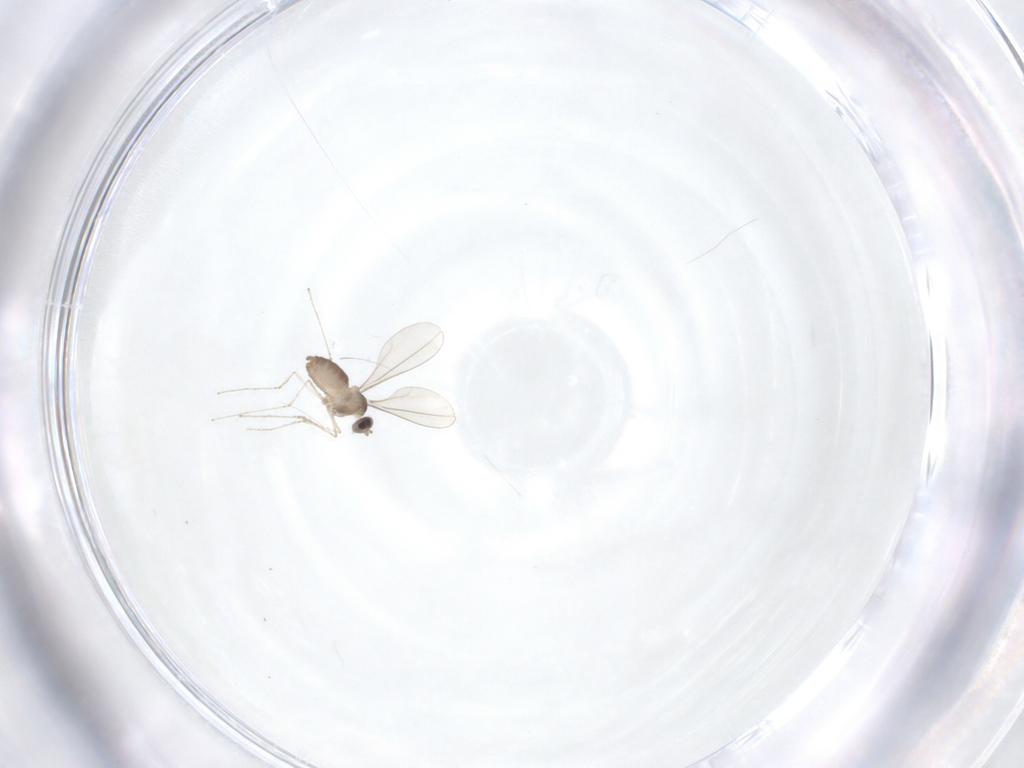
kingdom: Animalia
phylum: Arthropoda
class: Insecta
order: Diptera
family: Cecidomyiidae
